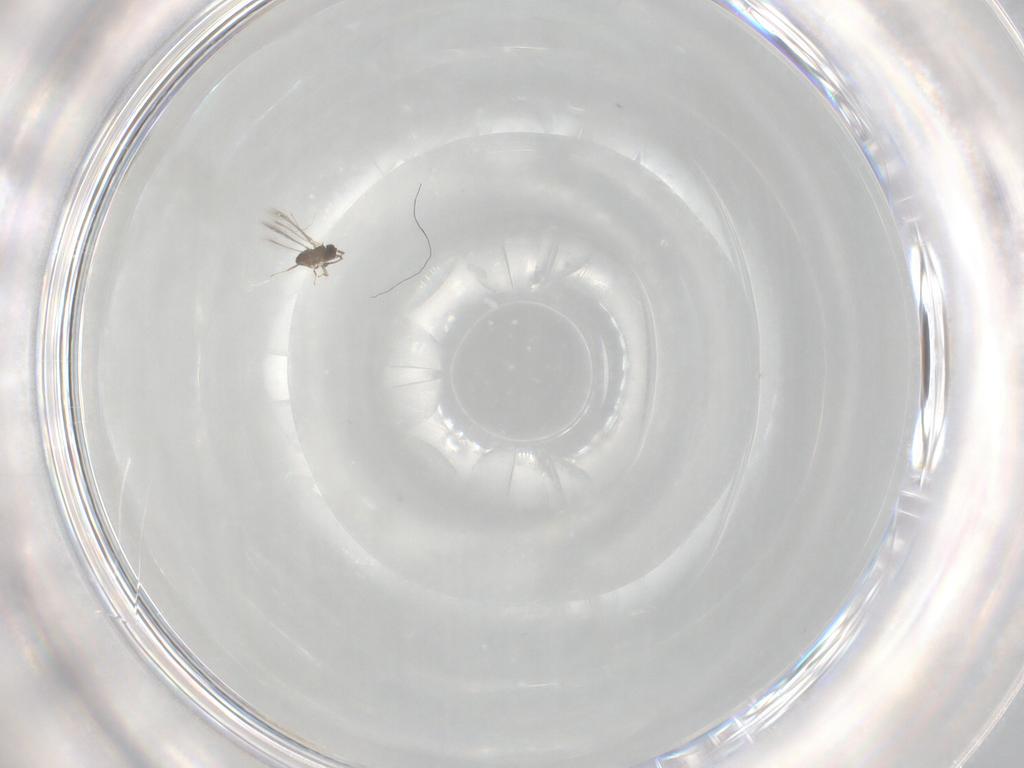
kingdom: Animalia
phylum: Arthropoda
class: Insecta
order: Hymenoptera
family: Mymaridae
